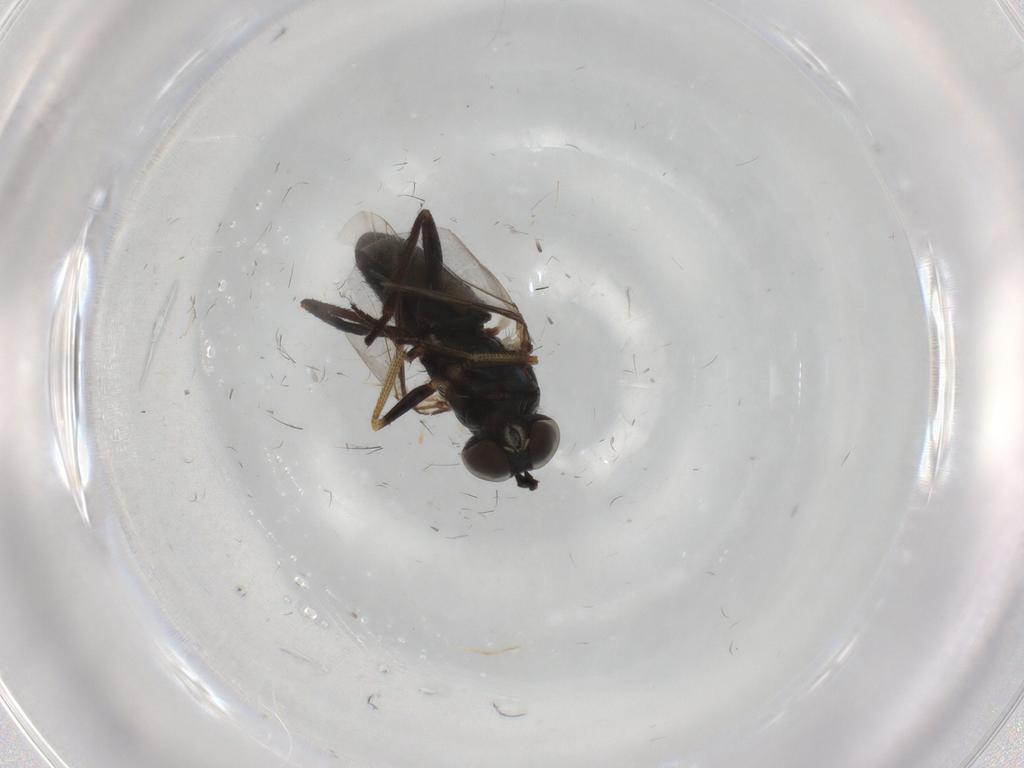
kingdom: Animalia
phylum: Arthropoda
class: Insecta
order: Diptera
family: Dolichopodidae
